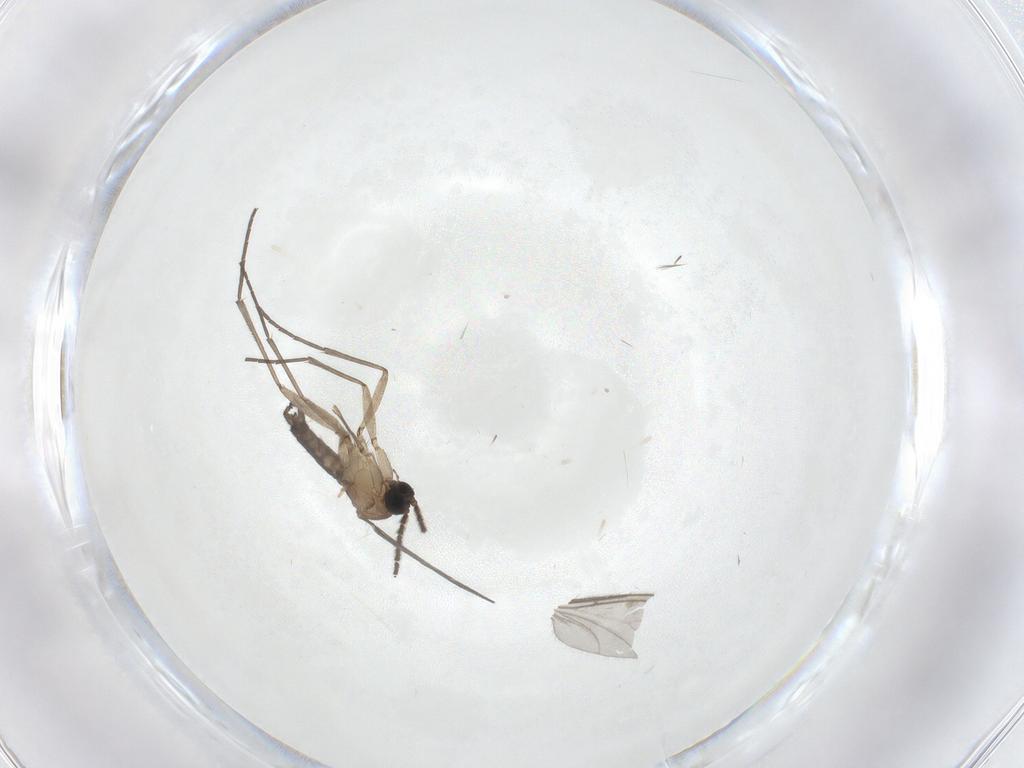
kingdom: Animalia
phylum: Arthropoda
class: Insecta
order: Diptera
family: Sciaridae
